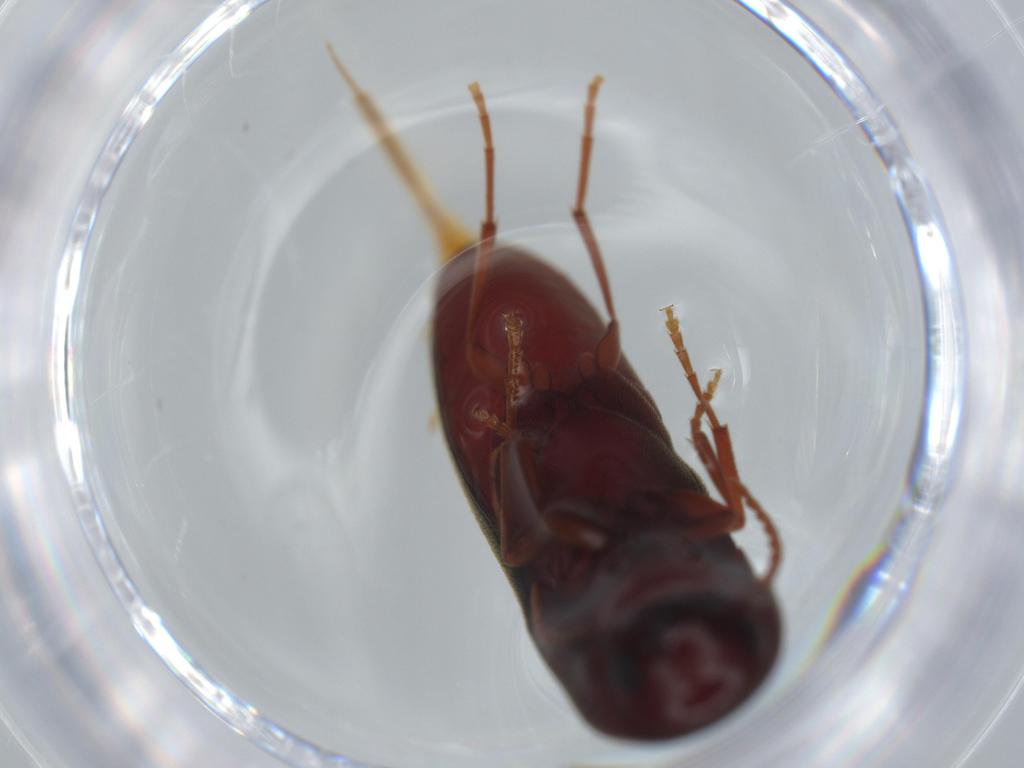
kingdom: Animalia
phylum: Arthropoda
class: Insecta
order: Coleoptera
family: Eucnemidae
